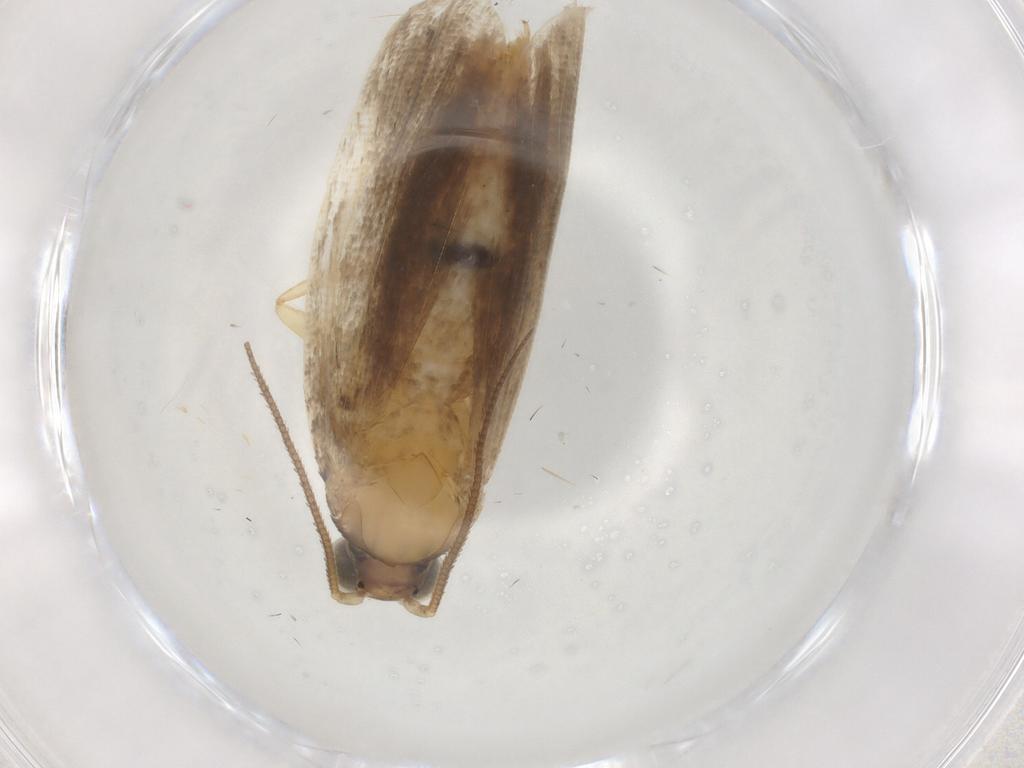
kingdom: Animalia
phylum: Arthropoda
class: Insecta
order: Lepidoptera
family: Tortricidae
